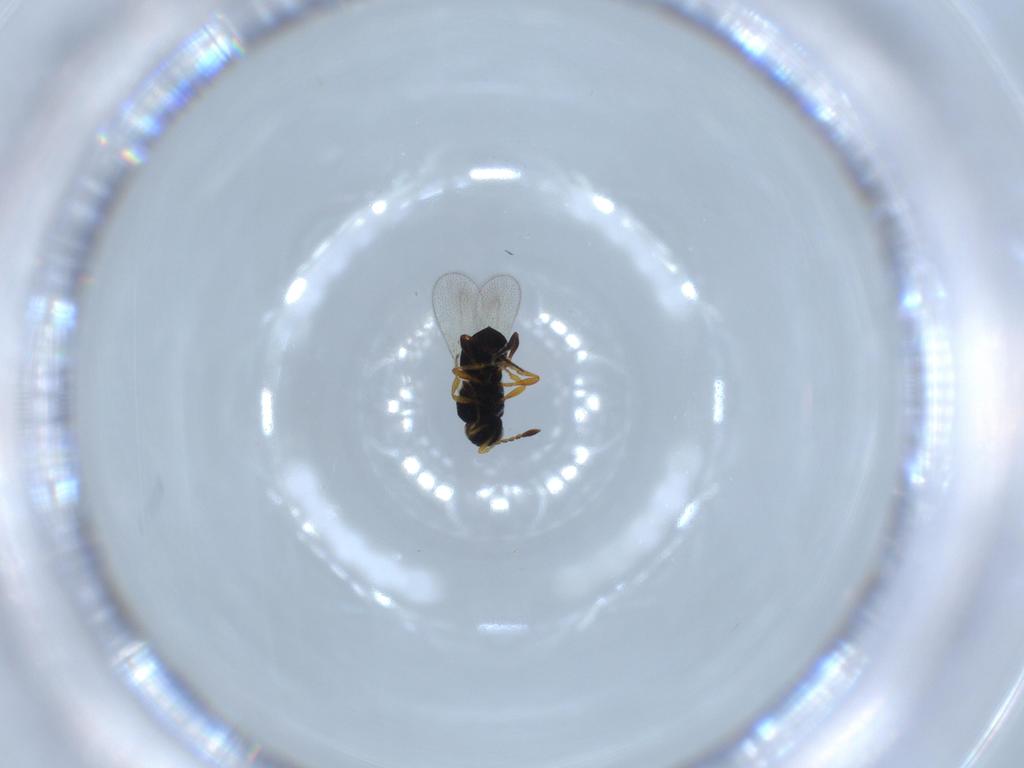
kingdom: Animalia
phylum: Arthropoda
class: Insecta
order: Hymenoptera
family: Platygastridae
